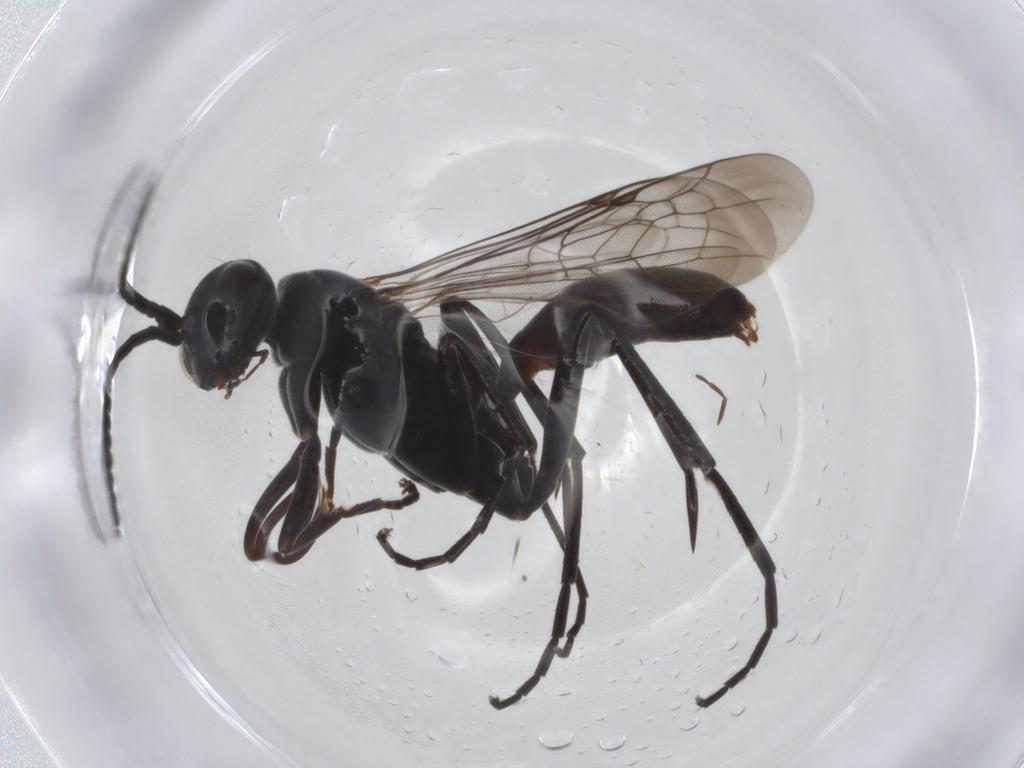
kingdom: Animalia
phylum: Arthropoda
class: Insecta
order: Hymenoptera
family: Pompilidae
